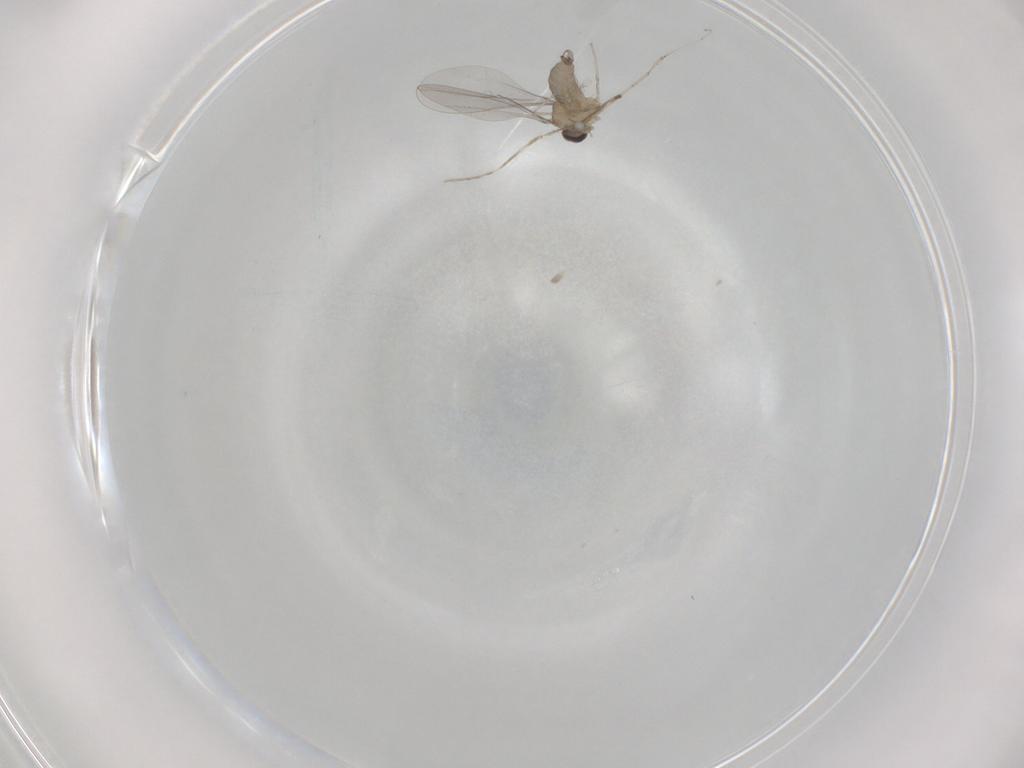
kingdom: Animalia
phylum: Arthropoda
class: Insecta
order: Diptera
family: Cecidomyiidae
